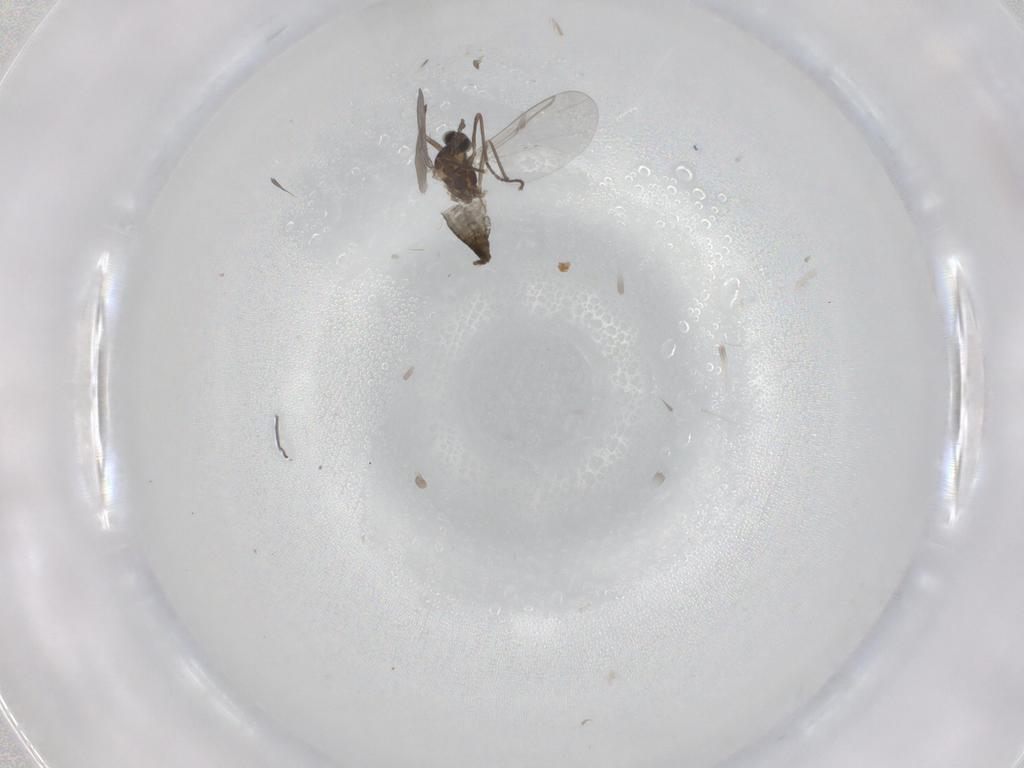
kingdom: Animalia
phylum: Arthropoda
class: Insecta
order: Diptera
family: Cecidomyiidae
